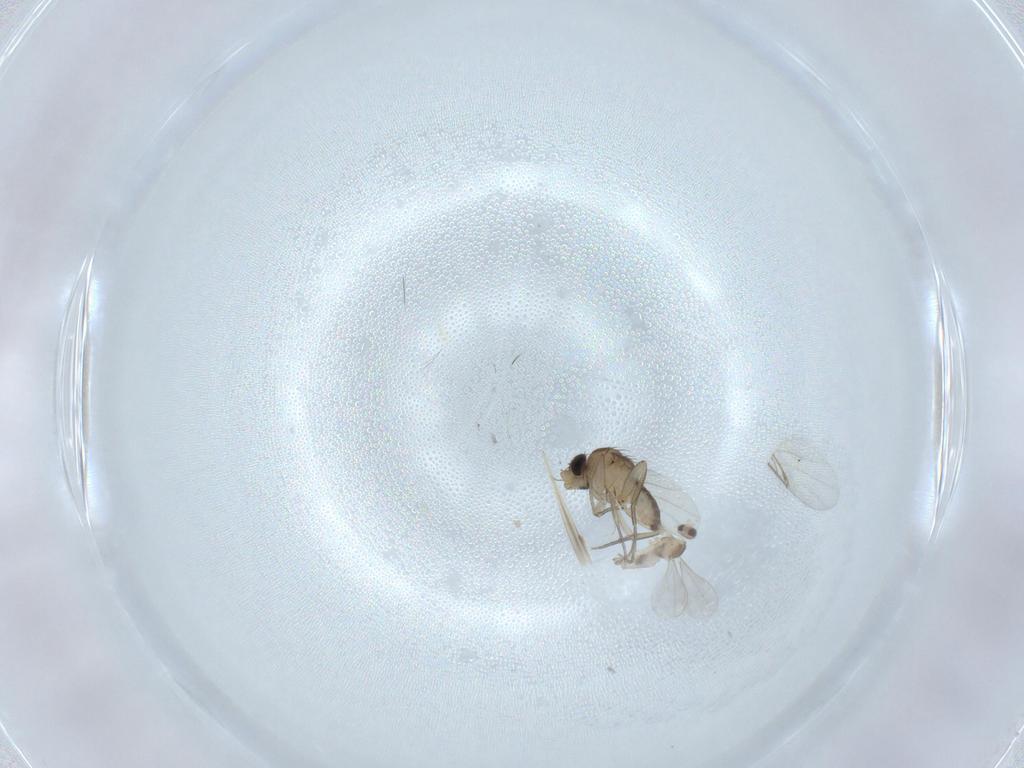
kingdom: Animalia
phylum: Arthropoda
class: Insecta
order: Diptera
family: Cecidomyiidae
